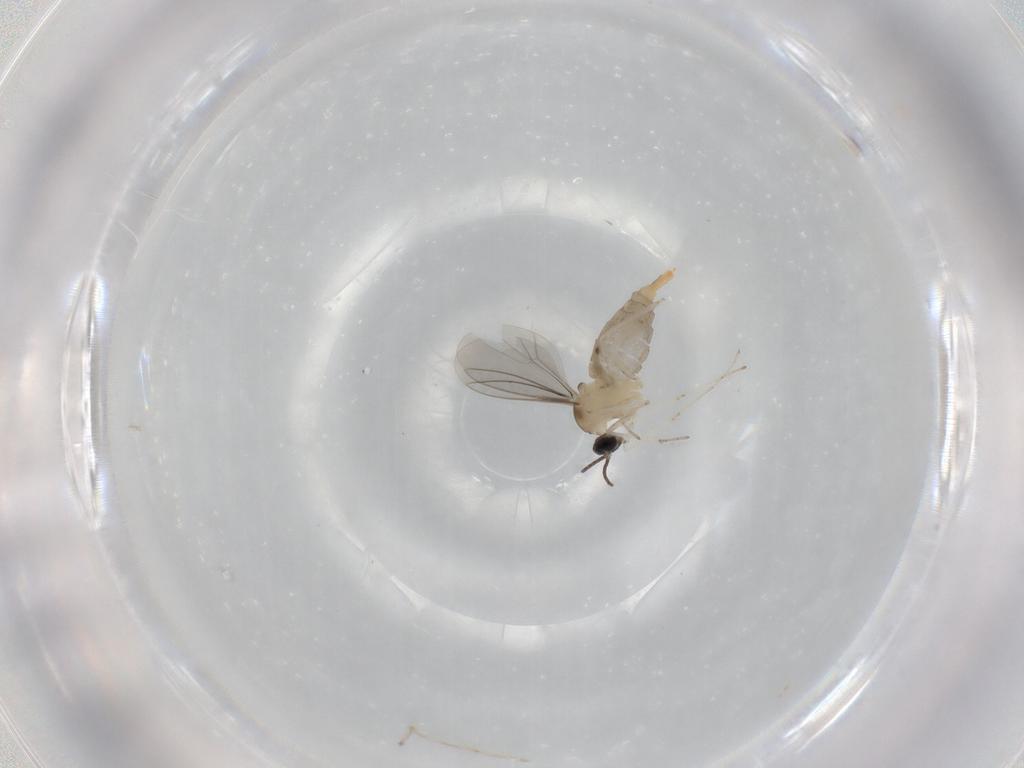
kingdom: Animalia
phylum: Arthropoda
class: Insecta
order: Diptera
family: Cecidomyiidae
